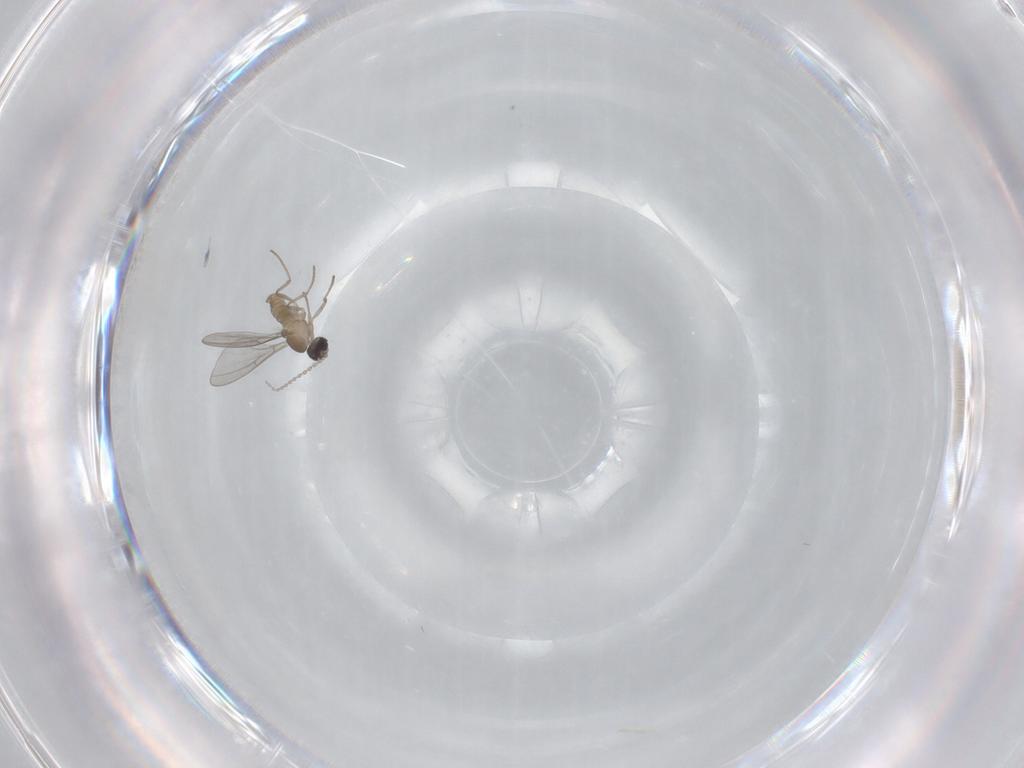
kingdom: Animalia
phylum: Arthropoda
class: Insecta
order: Diptera
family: Cecidomyiidae
